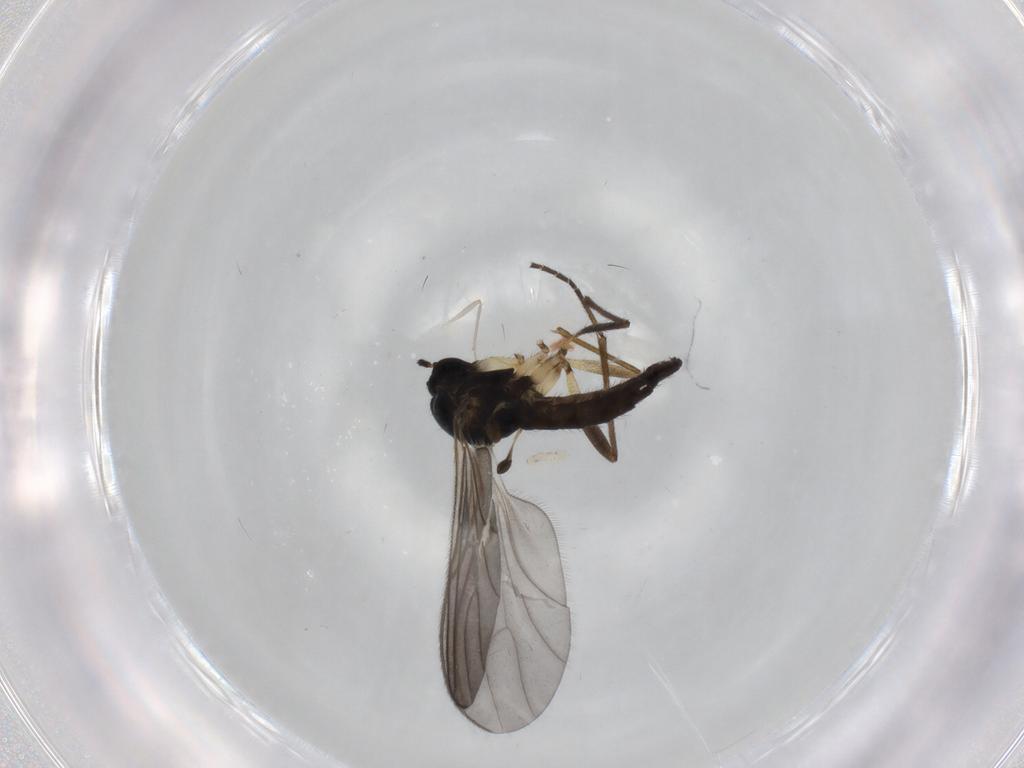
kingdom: Animalia
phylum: Arthropoda
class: Insecta
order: Diptera
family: Sciaridae
